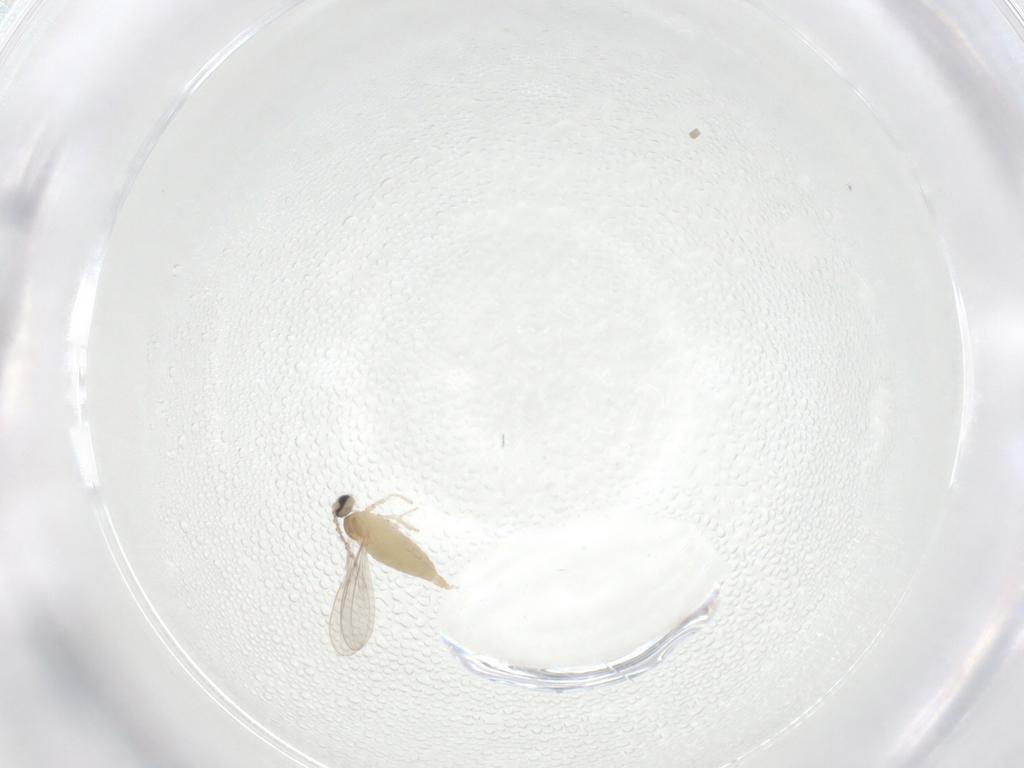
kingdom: Animalia
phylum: Arthropoda
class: Insecta
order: Diptera
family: Cecidomyiidae
